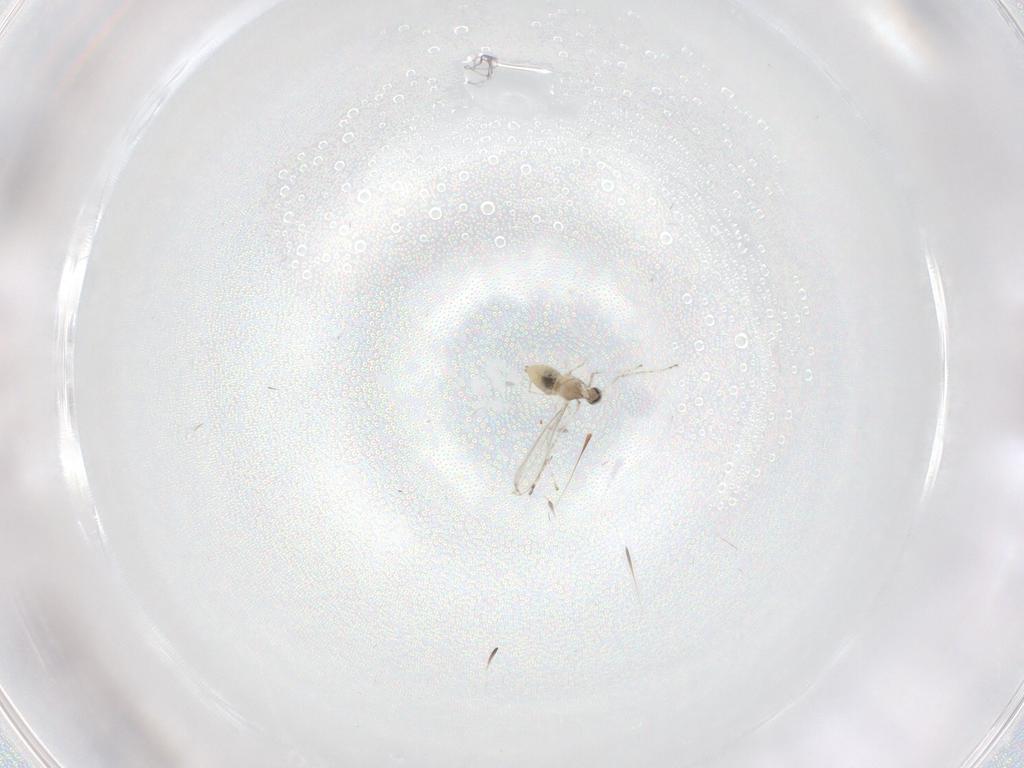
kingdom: Animalia
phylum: Arthropoda
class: Insecta
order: Diptera
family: Cecidomyiidae
